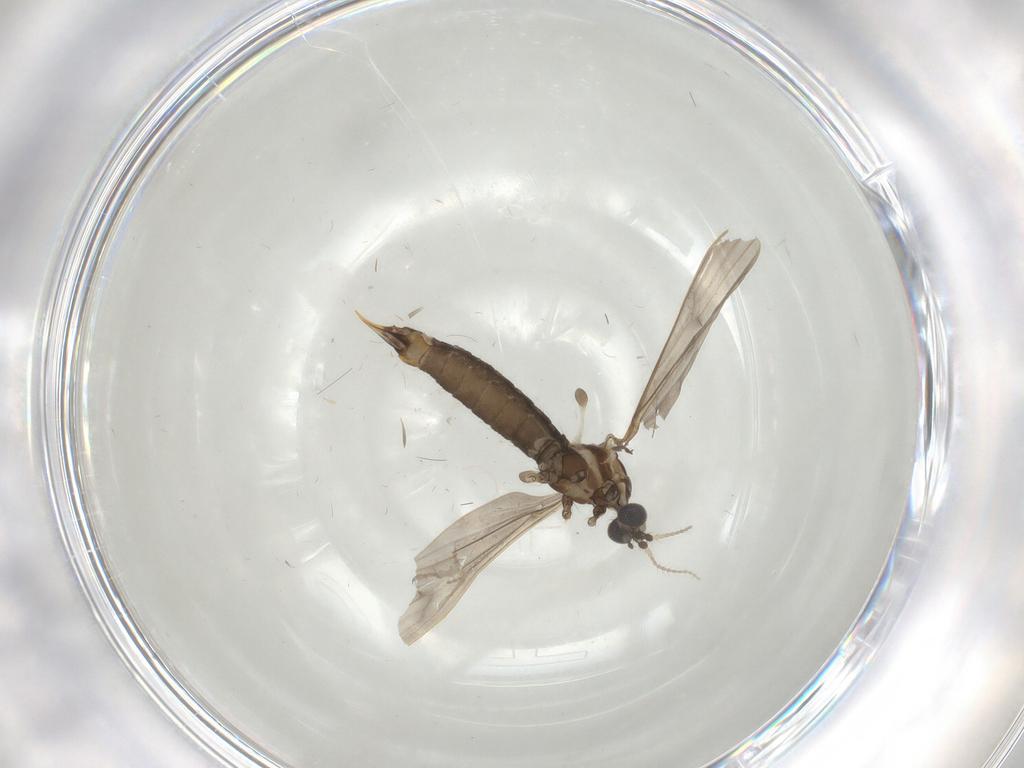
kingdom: Animalia
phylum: Arthropoda
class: Insecta
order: Diptera
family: Limoniidae
